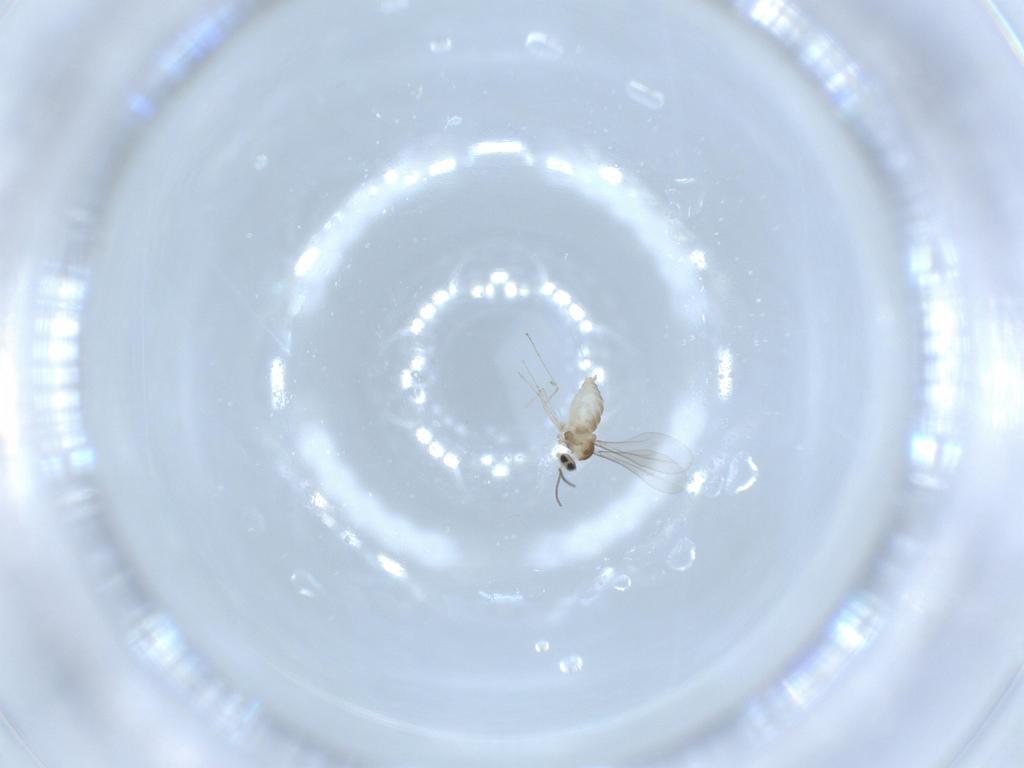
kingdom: Animalia
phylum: Arthropoda
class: Insecta
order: Diptera
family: Cecidomyiidae
